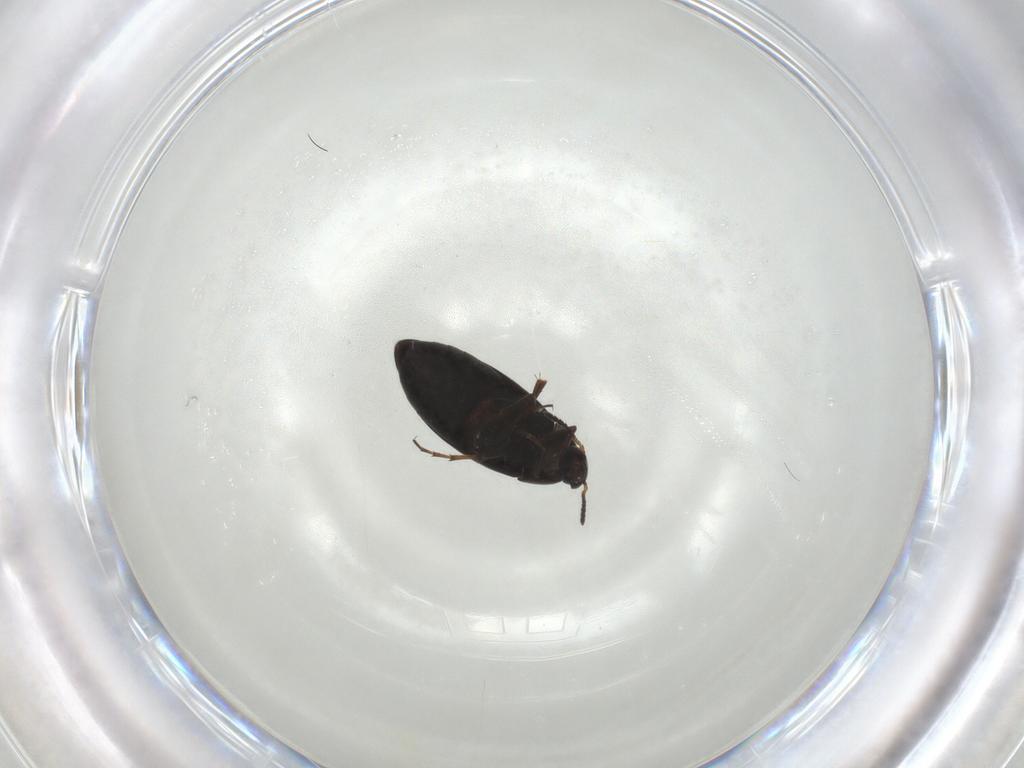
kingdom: Animalia
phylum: Arthropoda
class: Insecta
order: Coleoptera
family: Scraptiidae
